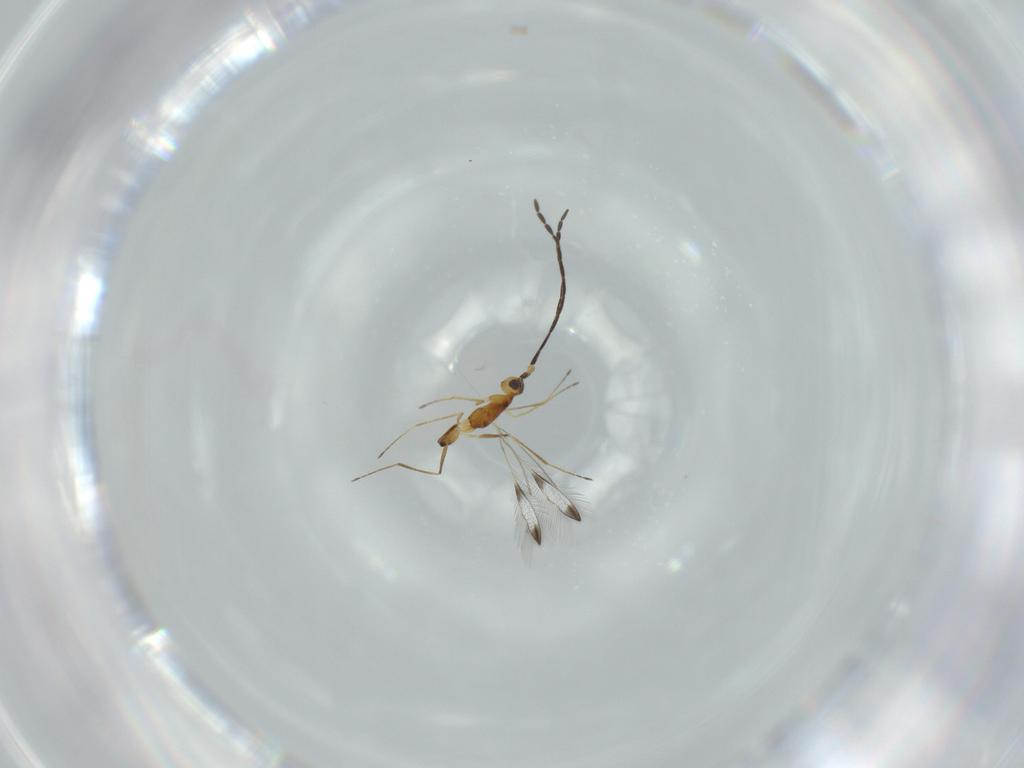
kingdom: Animalia
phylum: Arthropoda
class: Insecta
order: Hymenoptera
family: Mymaridae
